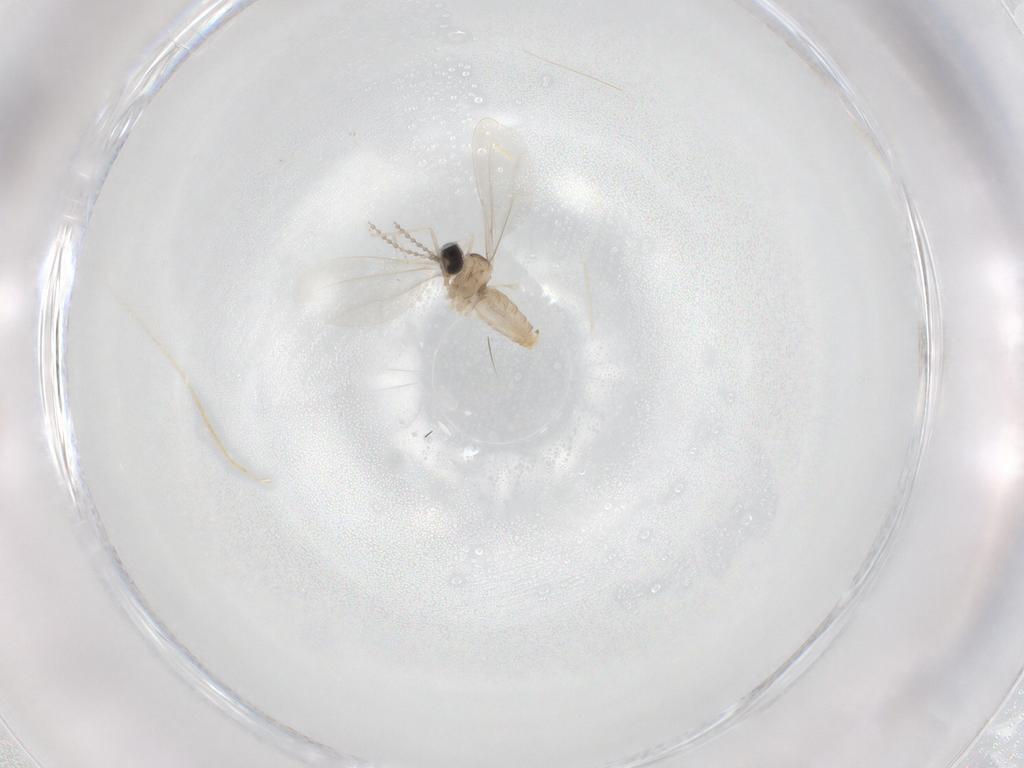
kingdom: Animalia
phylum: Arthropoda
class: Insecta
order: Diptera
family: Cecidomyiidae
